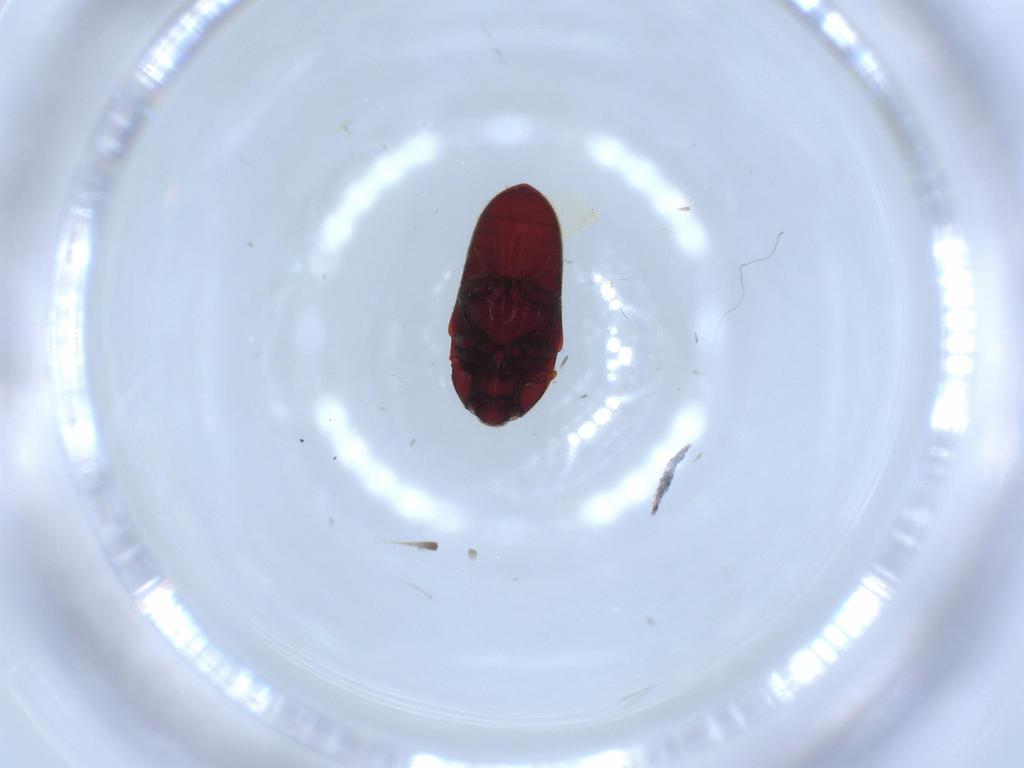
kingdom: Animalia
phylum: Arthropoda
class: Insecta
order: Coleoptera
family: Throscidae
